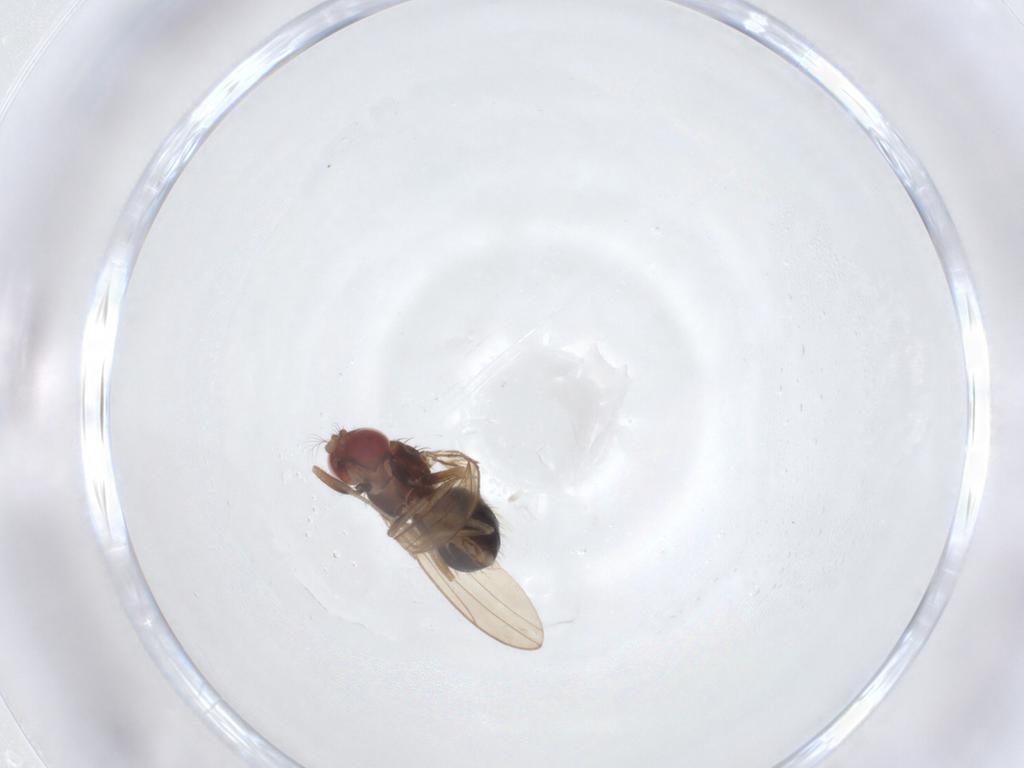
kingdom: Animalia
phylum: Arthropoda
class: Insecta
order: Diptera
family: Drosophilidae
